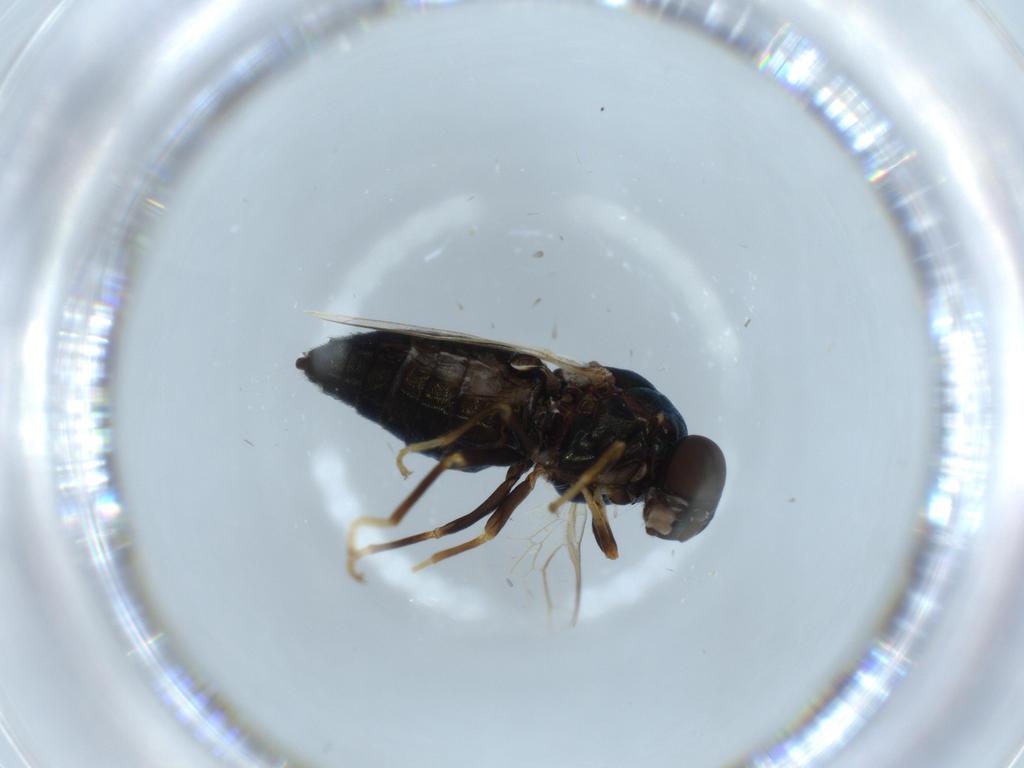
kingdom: Animalia
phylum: Arthropoda
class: Insecta
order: Diptera
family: Scenopinidae
